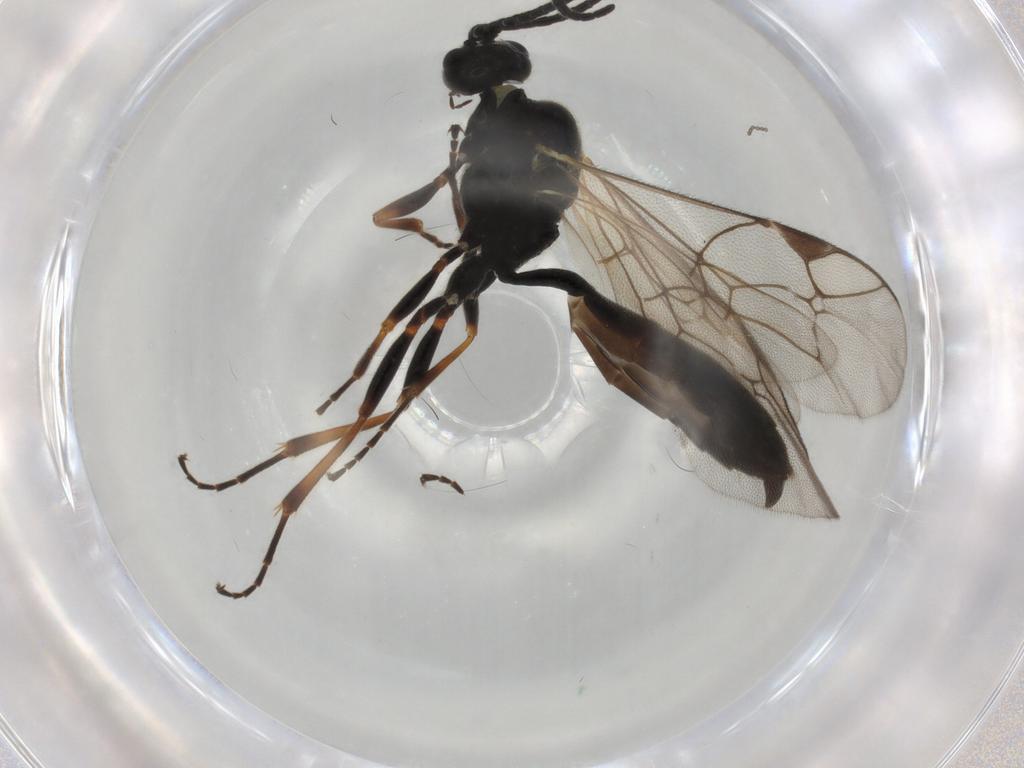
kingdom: Animalia
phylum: Arthropoda
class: Insecta
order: Hymenoptera
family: Ichneumonidae
